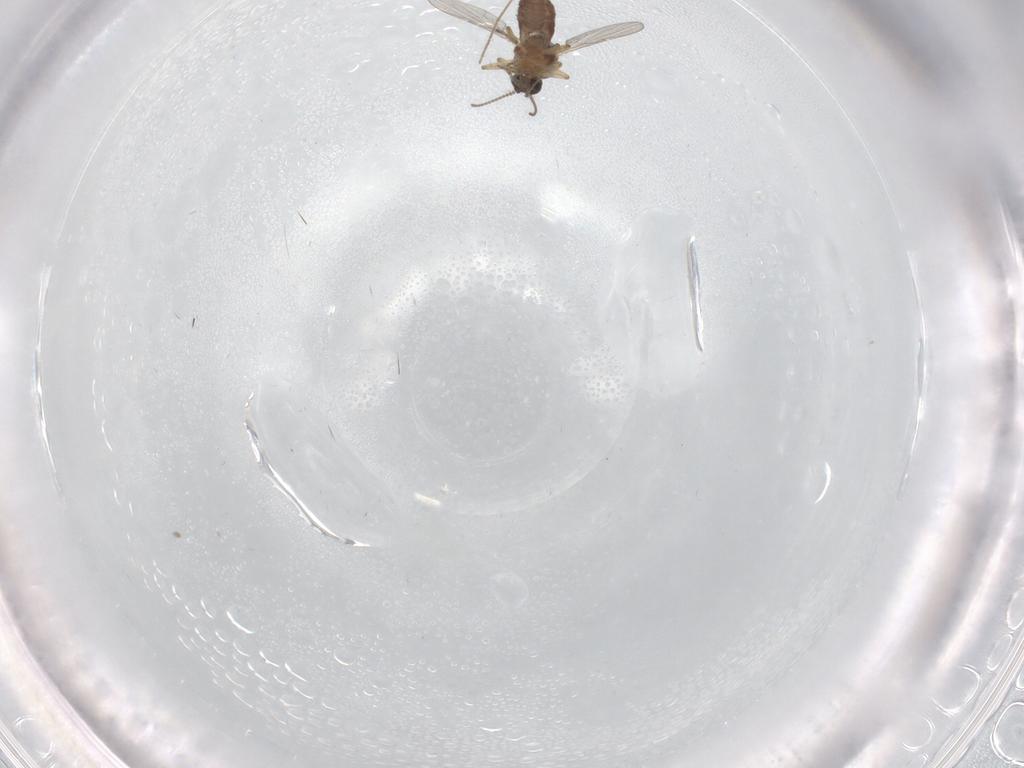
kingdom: Animalia
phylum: Arthropoda
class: Insecta
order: Diptera
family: Ceratopogonidae
